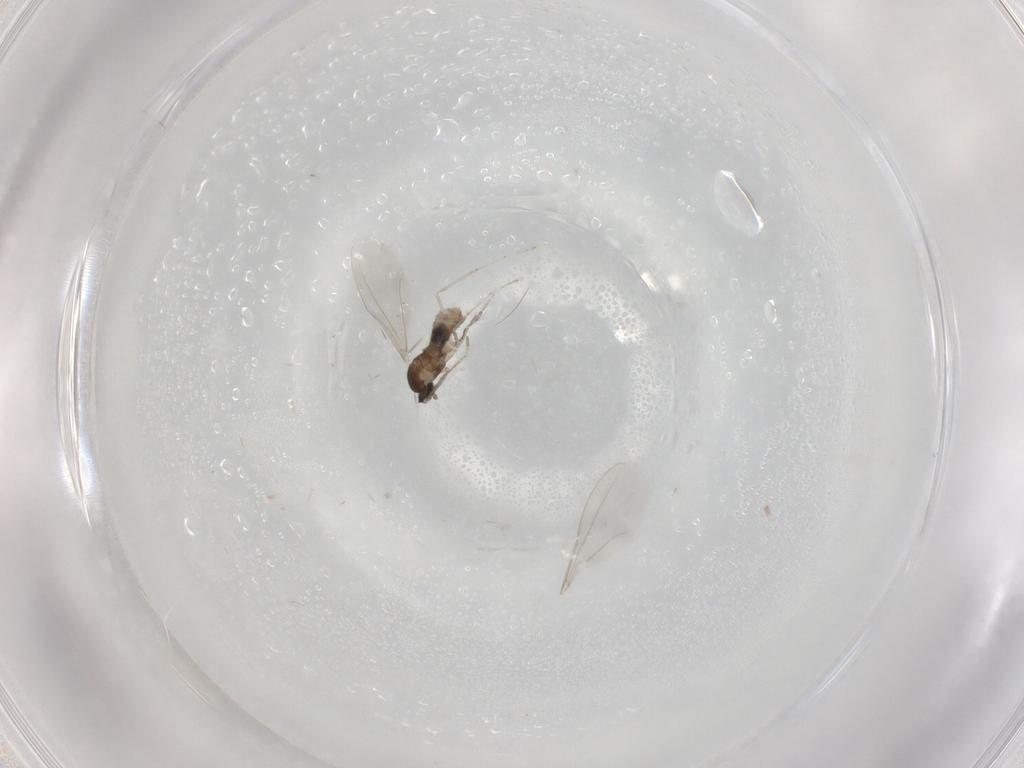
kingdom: Animalia
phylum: Arthropoda
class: Insecta
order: Diptera
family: Cecidomyiidae
